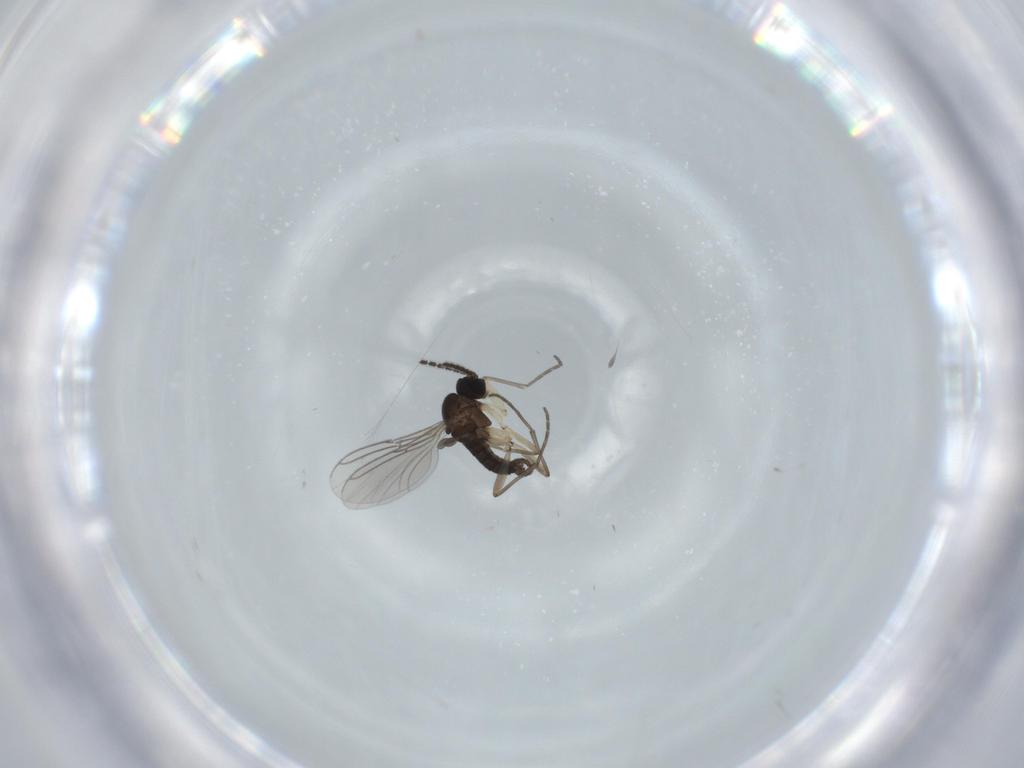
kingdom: Animalia
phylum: Arthropoda
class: Insecta
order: Diptera
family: Sciaridae
